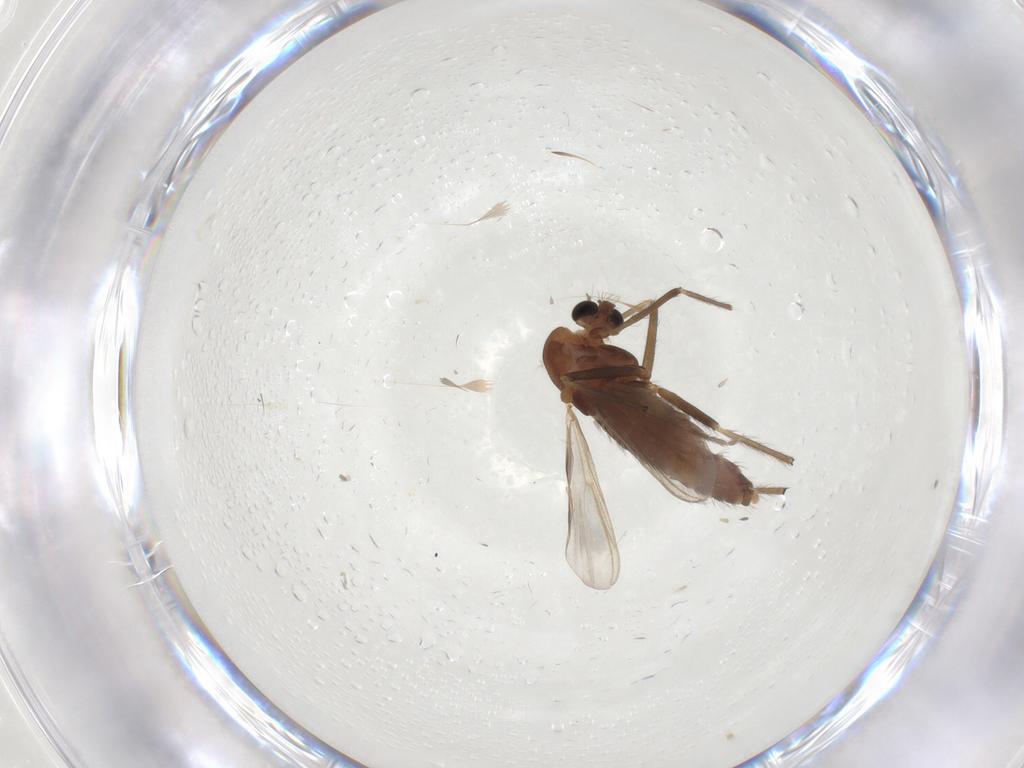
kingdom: Animalia
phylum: Arthropoda
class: Insecta
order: Diptera
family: Chironomidae
